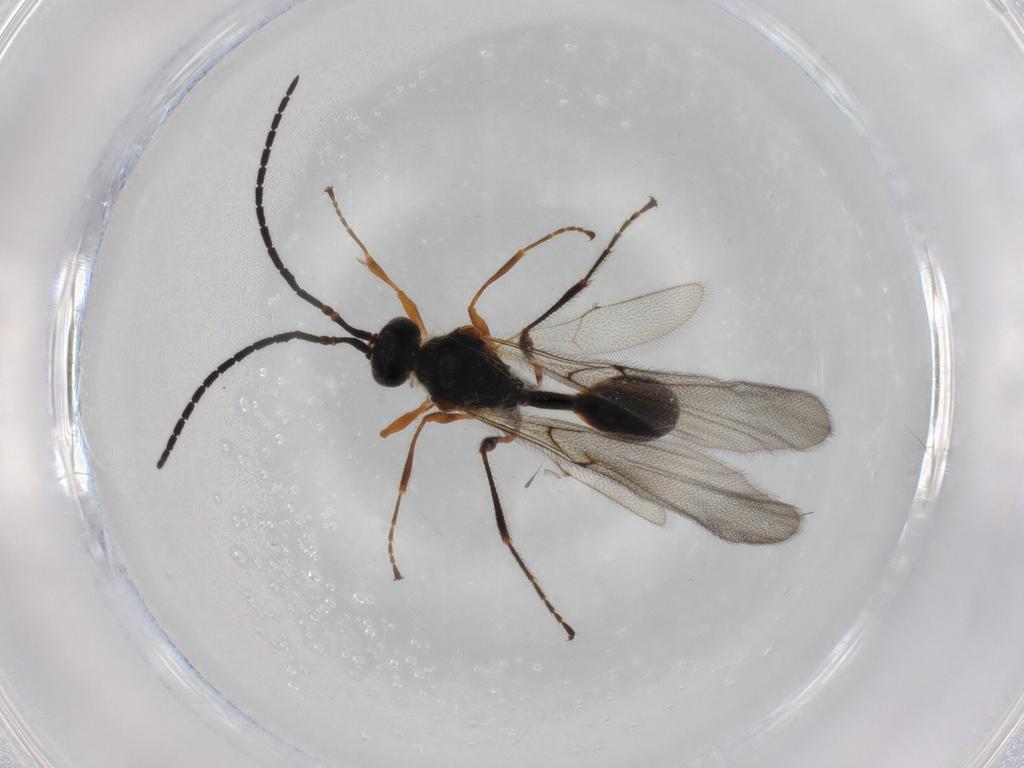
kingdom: Animalia
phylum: Arthropoda
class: Insecta
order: Hymenoptera
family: Diapriidae
